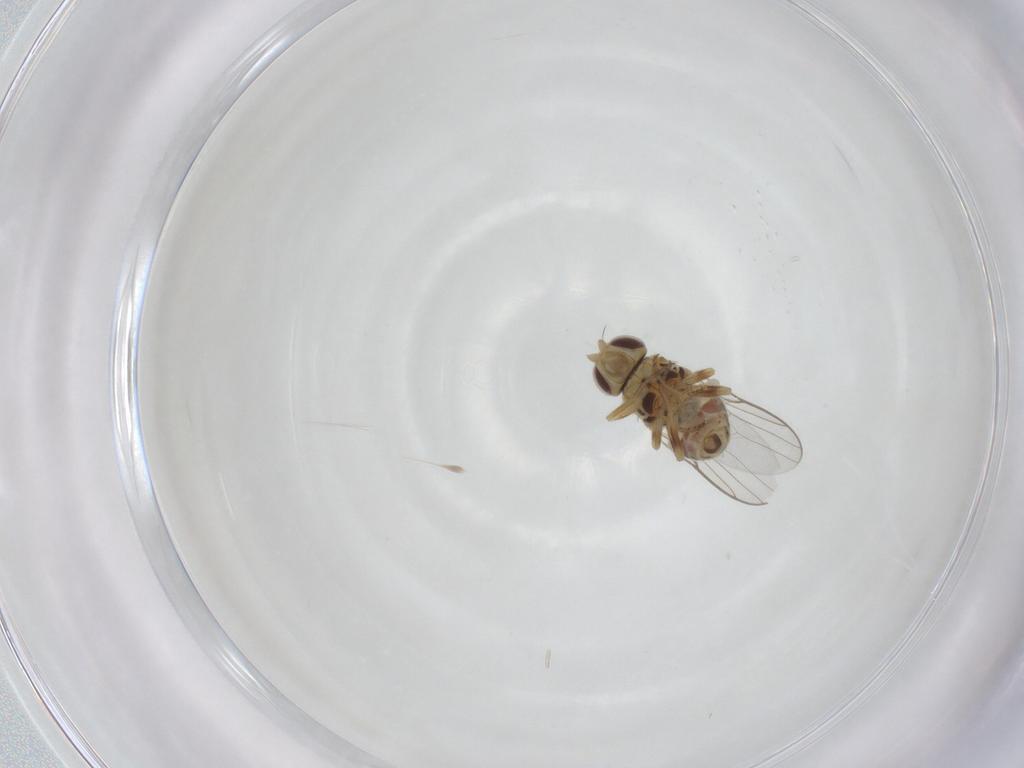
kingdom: Animalia
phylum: Arthropoda
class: Insecta
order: Diptera
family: Chloropidae
